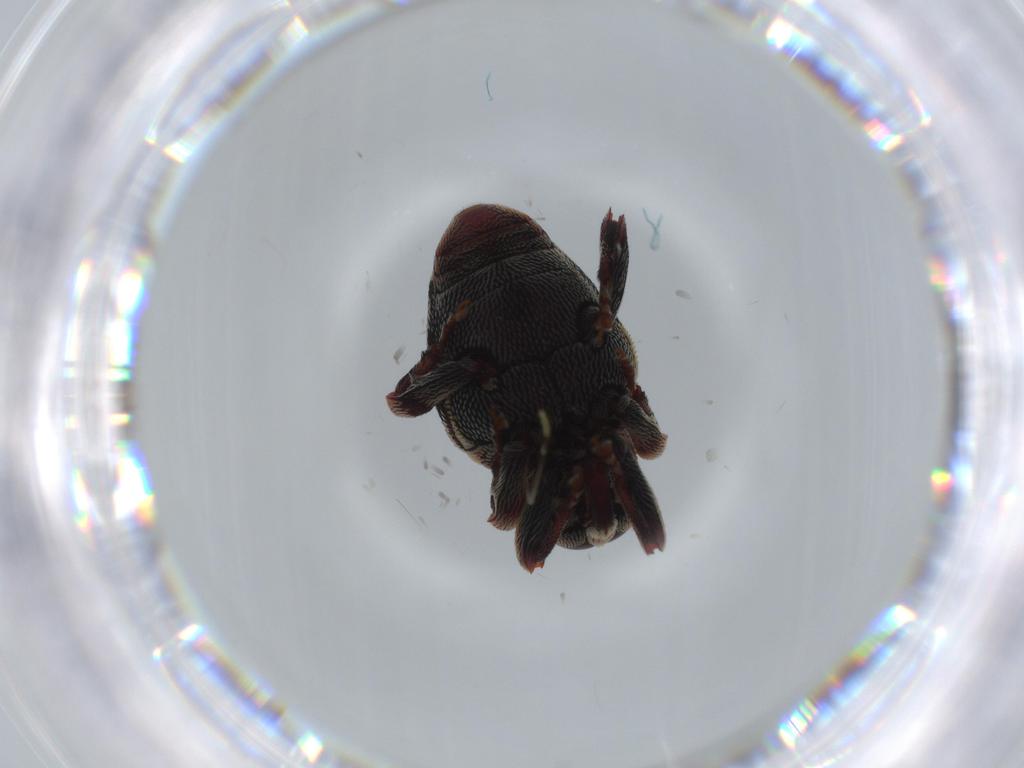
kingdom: Animalia
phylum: Arthropoda
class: Insecta
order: Coleoptera
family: Curculionidae
